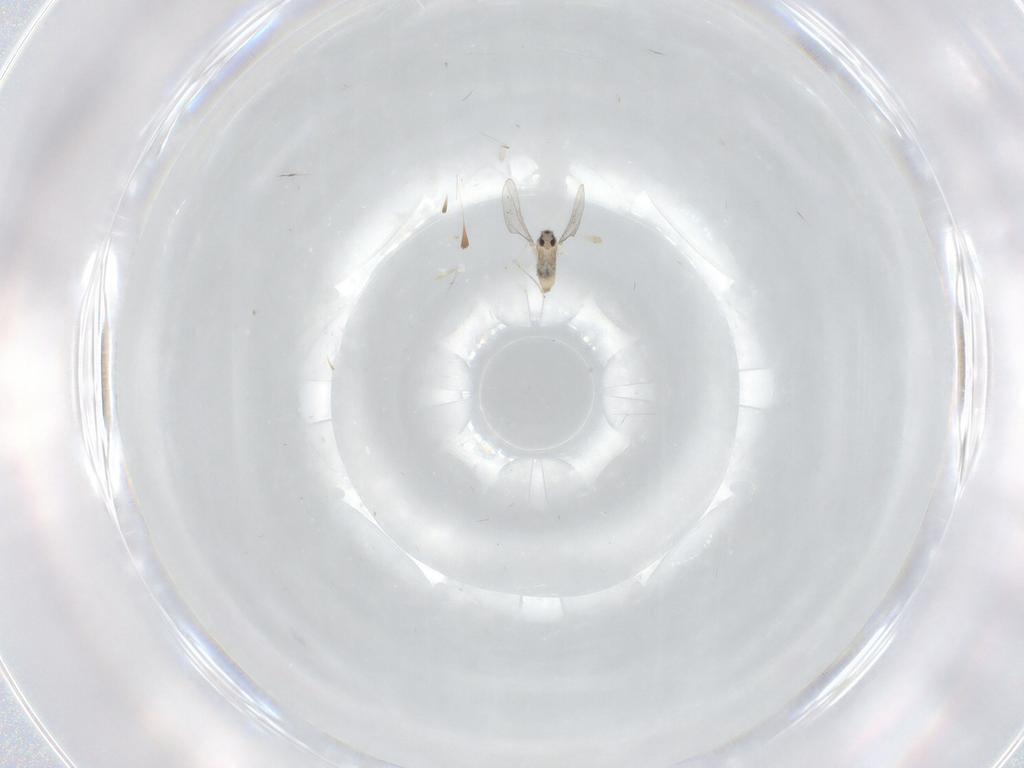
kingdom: Animalia
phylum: Arthropoda
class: Insecta
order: Diptera
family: Cecidomyiidae
